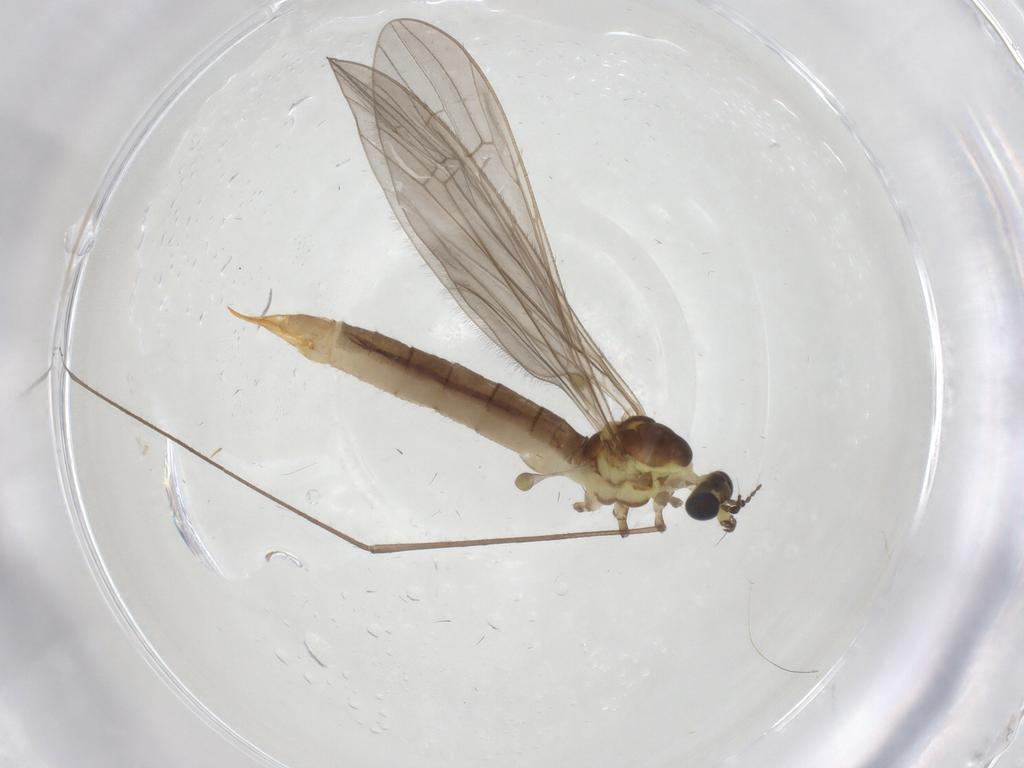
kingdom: Animalia
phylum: Arthropoda
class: Insecta
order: Diptera
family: Limoniidae
